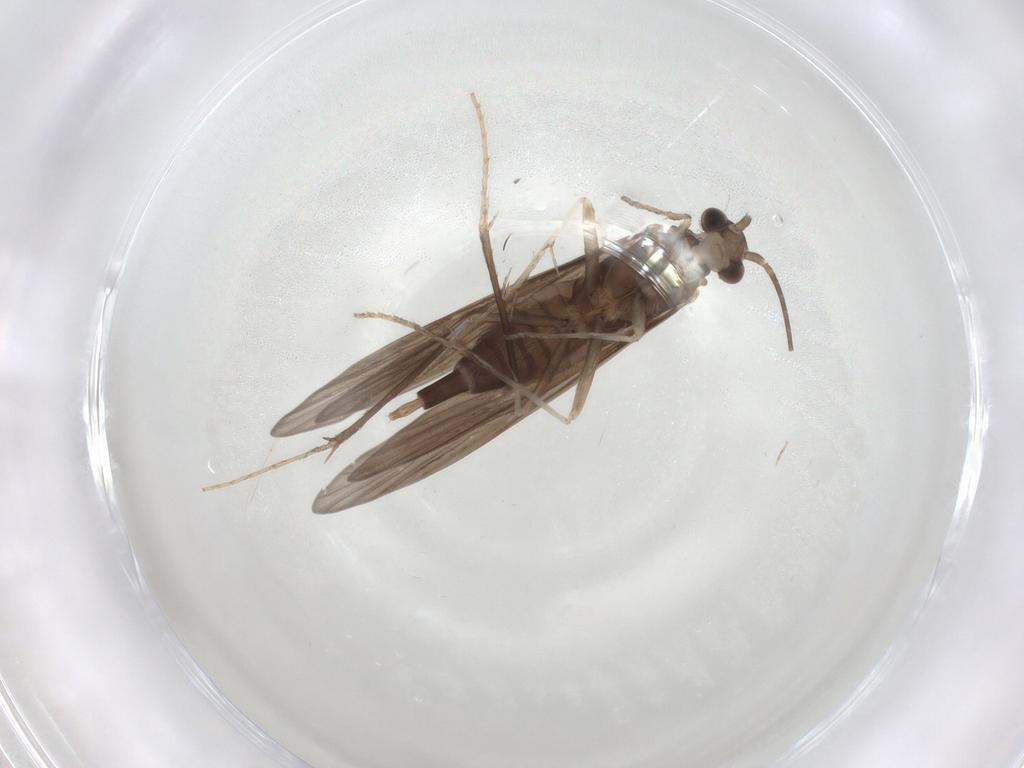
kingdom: Animalia
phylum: Arthropoda
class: Insecta
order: Trichoptera
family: Xiphocentronidae
